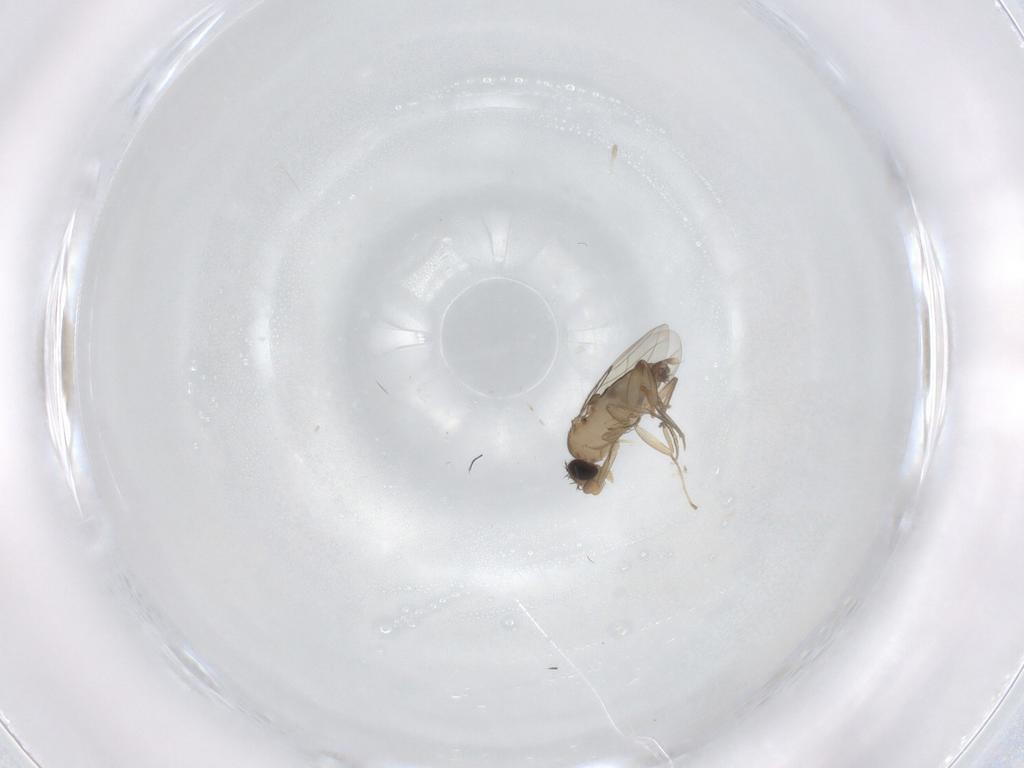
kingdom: Animalia
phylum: Arthropoda
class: Insecta
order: Diptera
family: Phoridae
